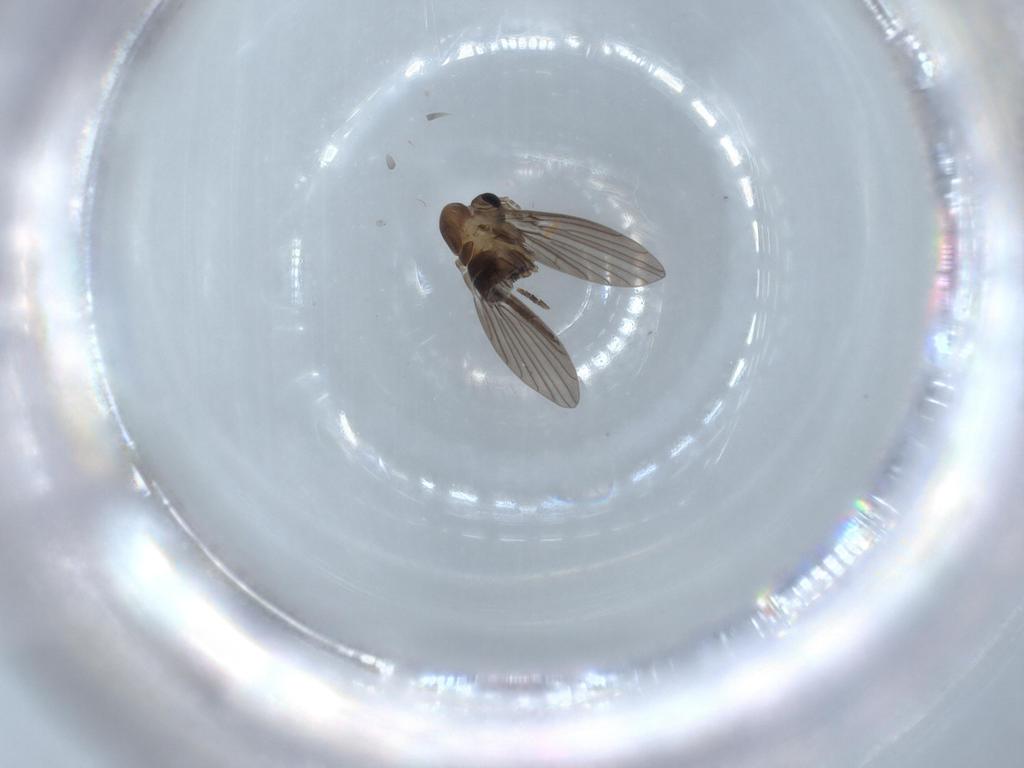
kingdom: Animalia
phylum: Arthropoda
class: Insecta
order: Diptera
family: Psychodidae
